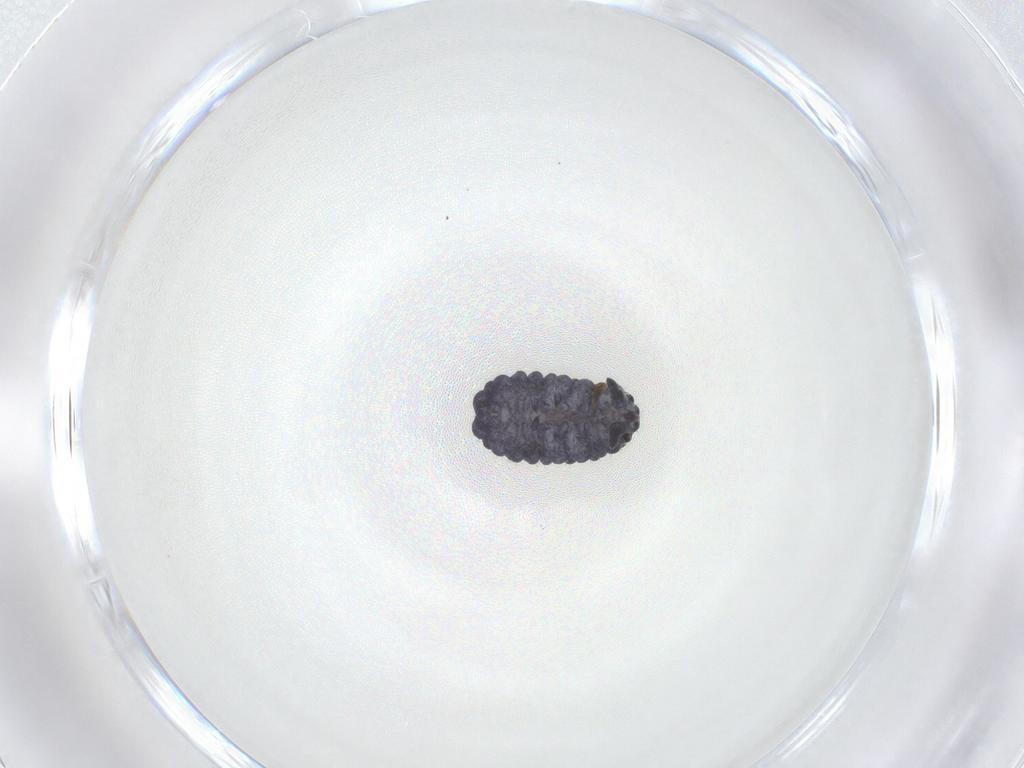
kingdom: Animalia
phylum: Arthropoda
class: Collembola
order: Poduromorpha
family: Neanuridae
